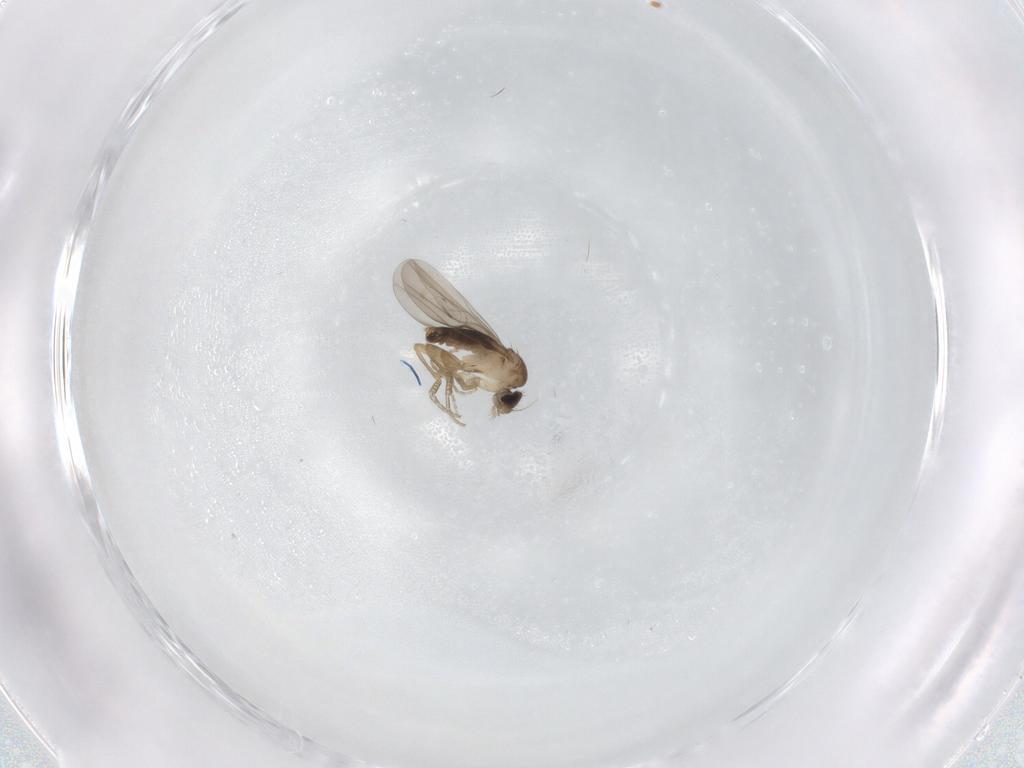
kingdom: Animalia
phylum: Arthropoda
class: Insecta
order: Diptera
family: Phoridae
